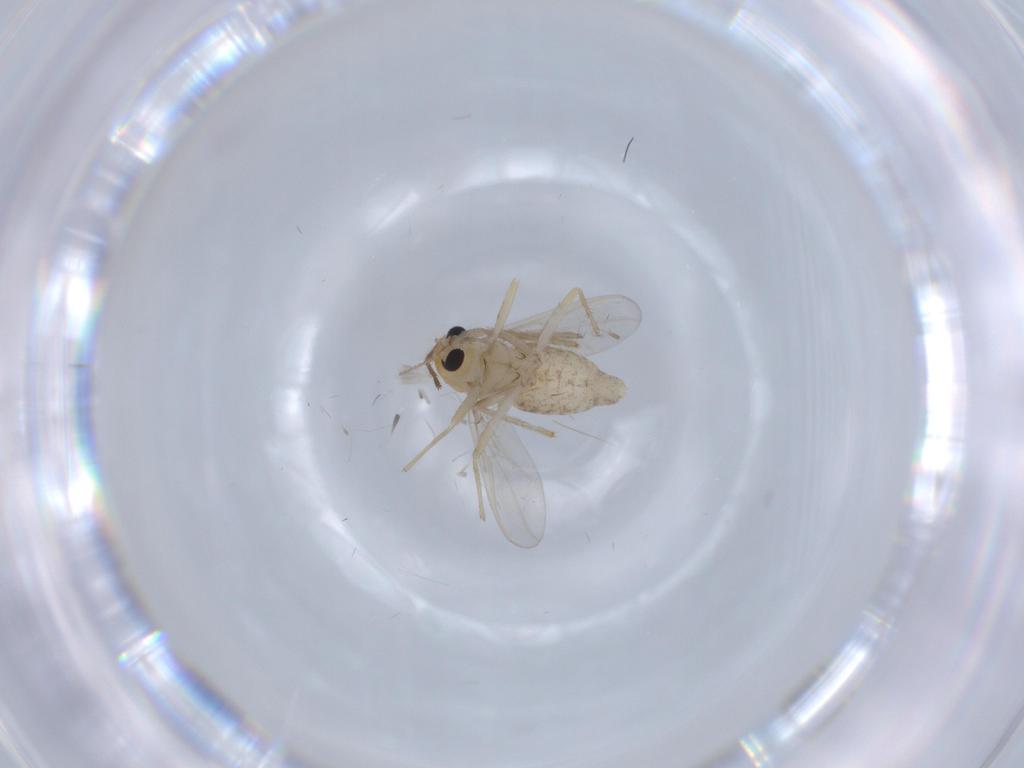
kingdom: Animalia
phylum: Arthropoda
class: Insecta
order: Diptera
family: Chironomidae
